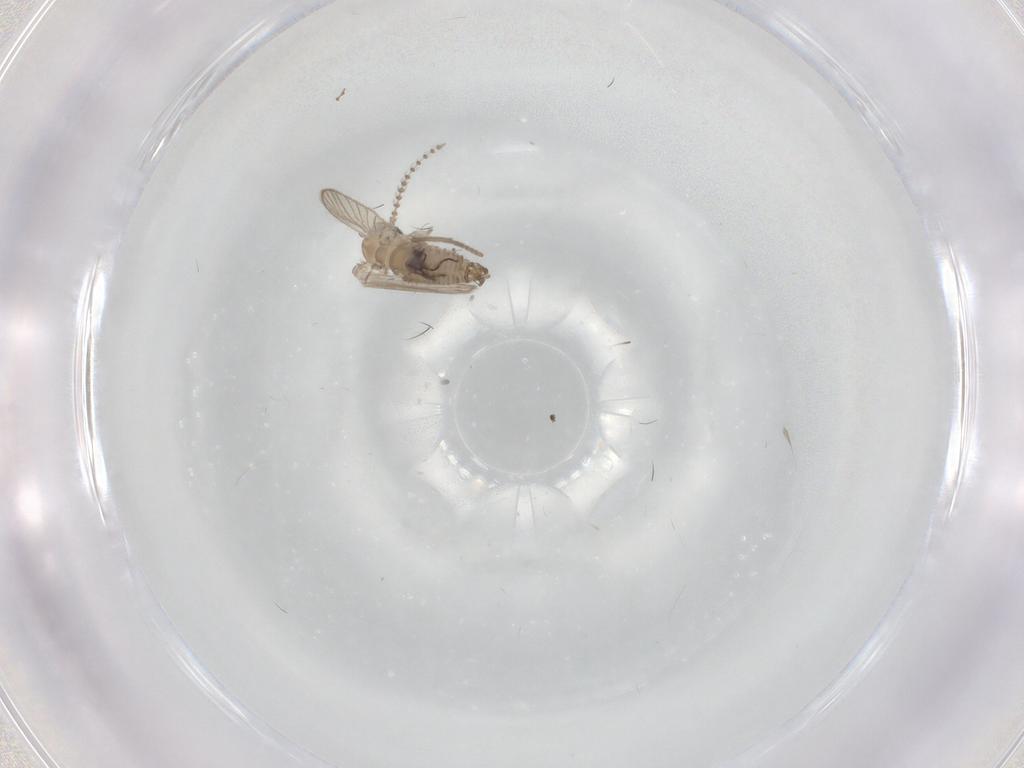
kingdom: Animalia
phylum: Arthropoda
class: Insecta
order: Diptera
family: Psychodidae
